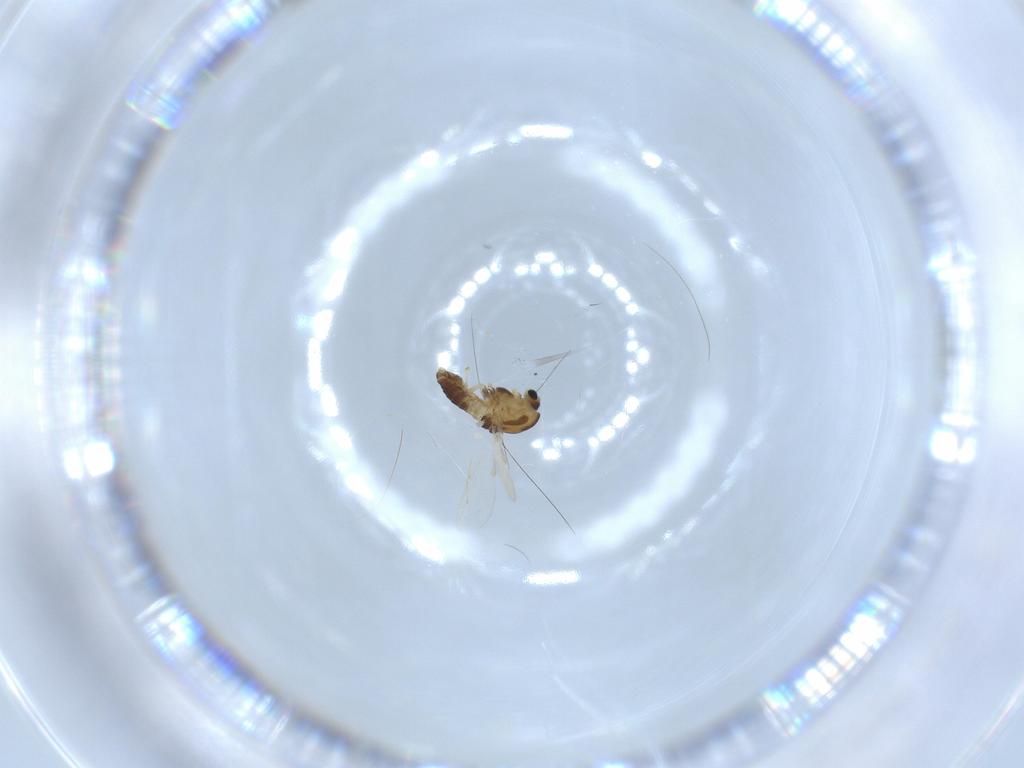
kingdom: Animalia
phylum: Arthropoda
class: Insecta
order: Diptera
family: Chironomidae
